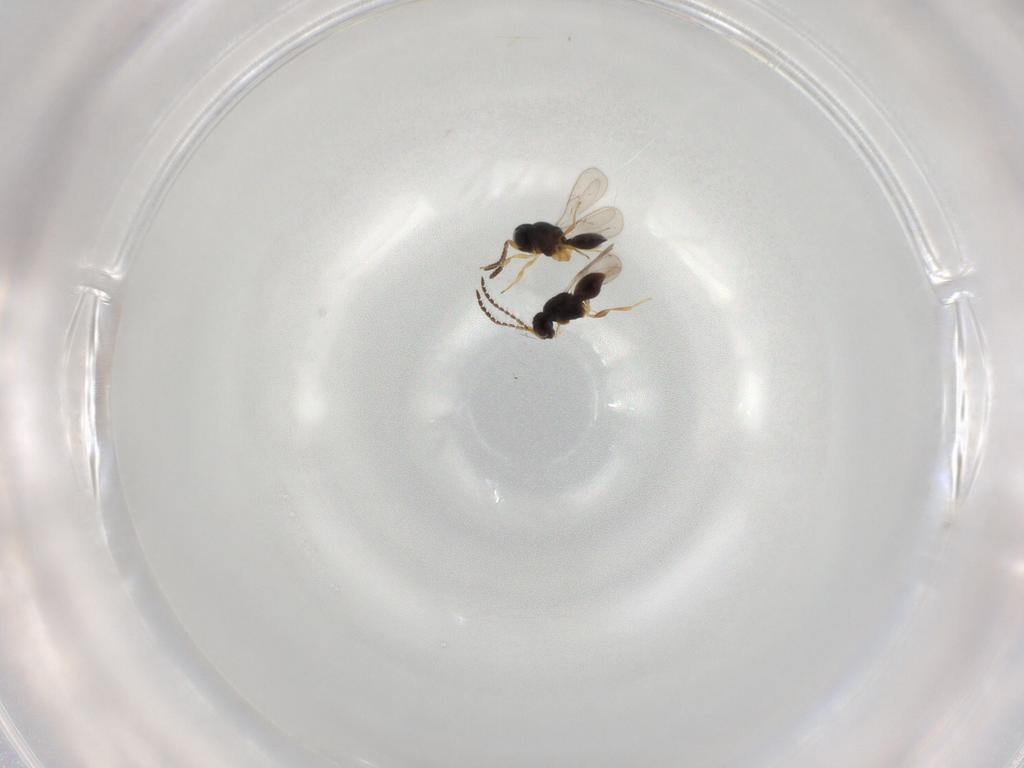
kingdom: Animalia
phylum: Arthropoda
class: Insecta
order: Hymenoptera
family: Scelionidae
